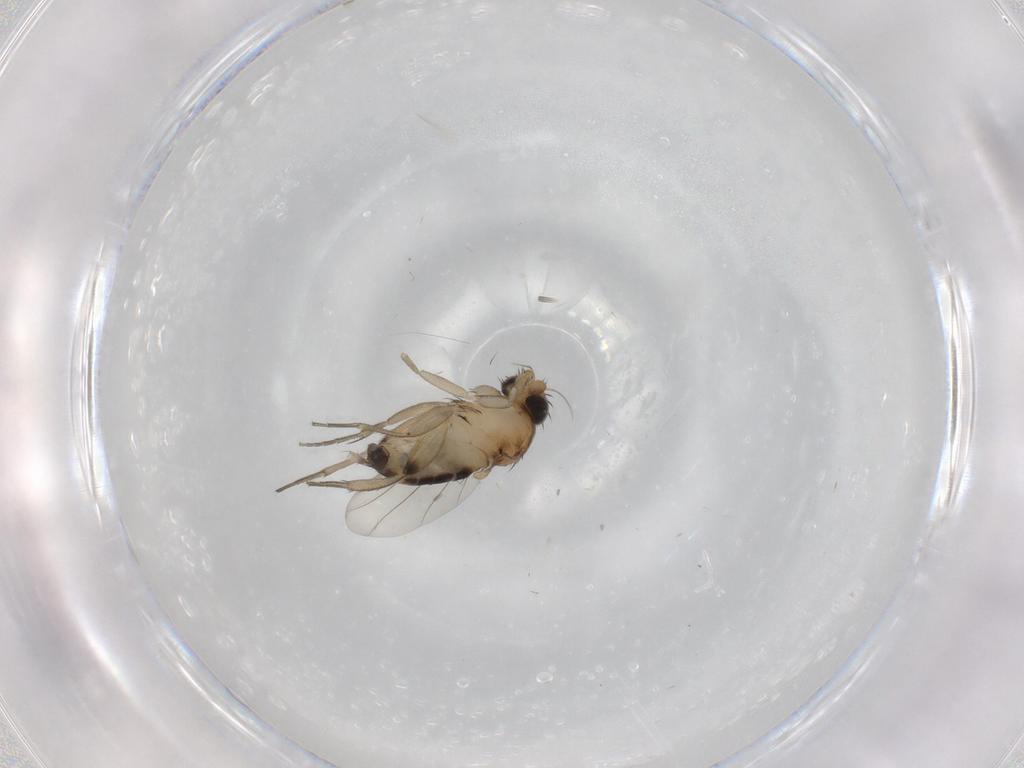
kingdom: Animalia
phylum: Arthropoda
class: Insecta
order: Diptera
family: Phoridae
